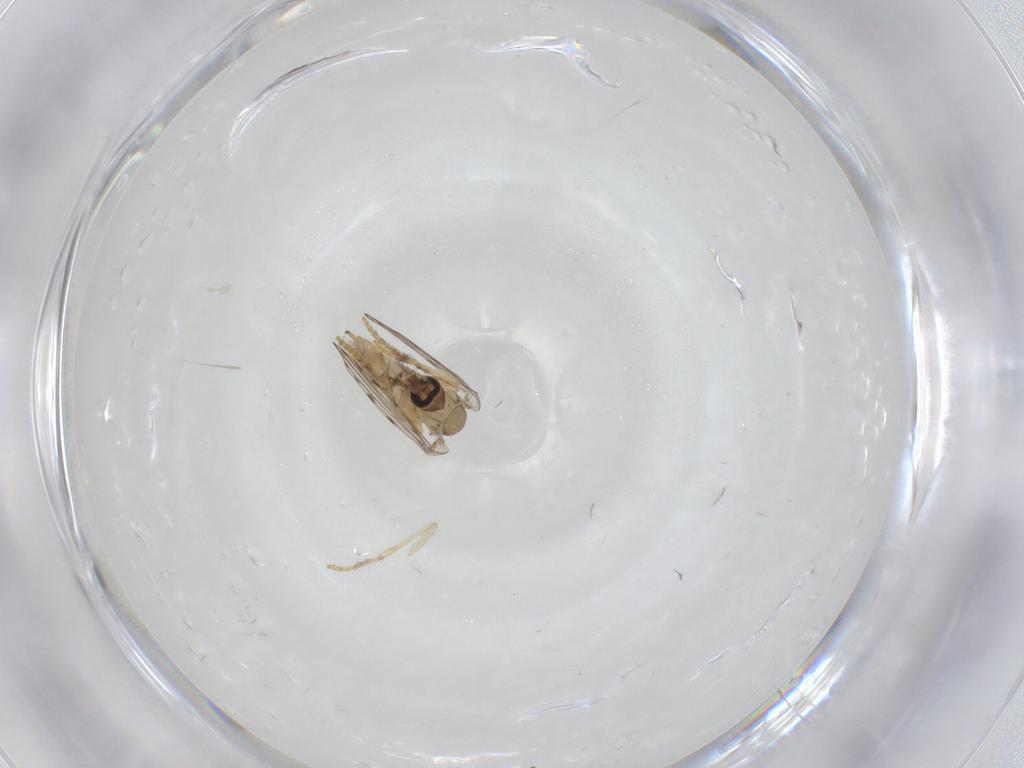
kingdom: Animalia
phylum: Arthropoda
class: Insecta
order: Diptera
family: Psychodidae
